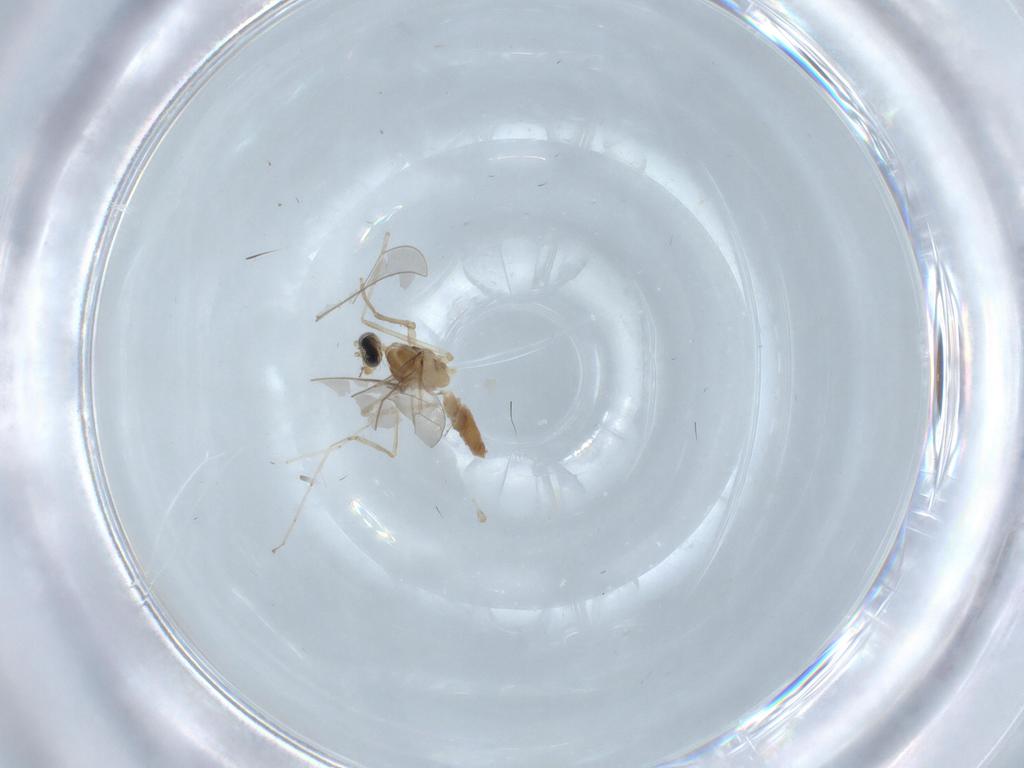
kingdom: Animalia
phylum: Arthropoda
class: Insecta
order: Diptera
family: Cecidomyiidae
